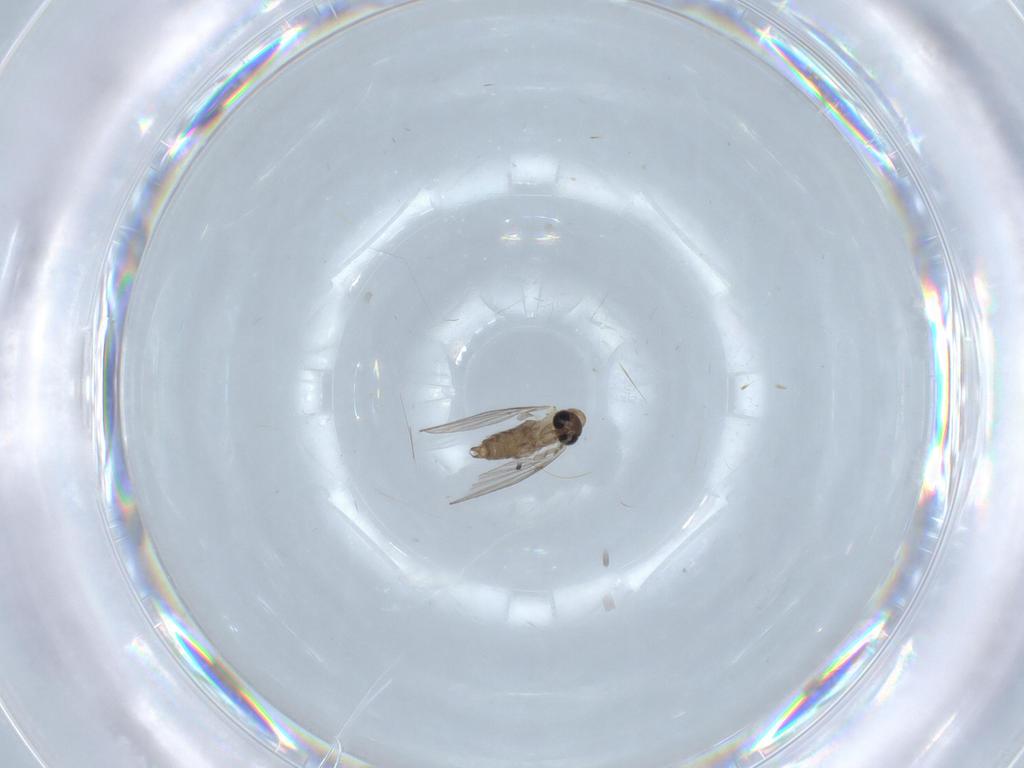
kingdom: Animalia
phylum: Arthropoda
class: Insecta
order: Diptera
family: Psychodidae
